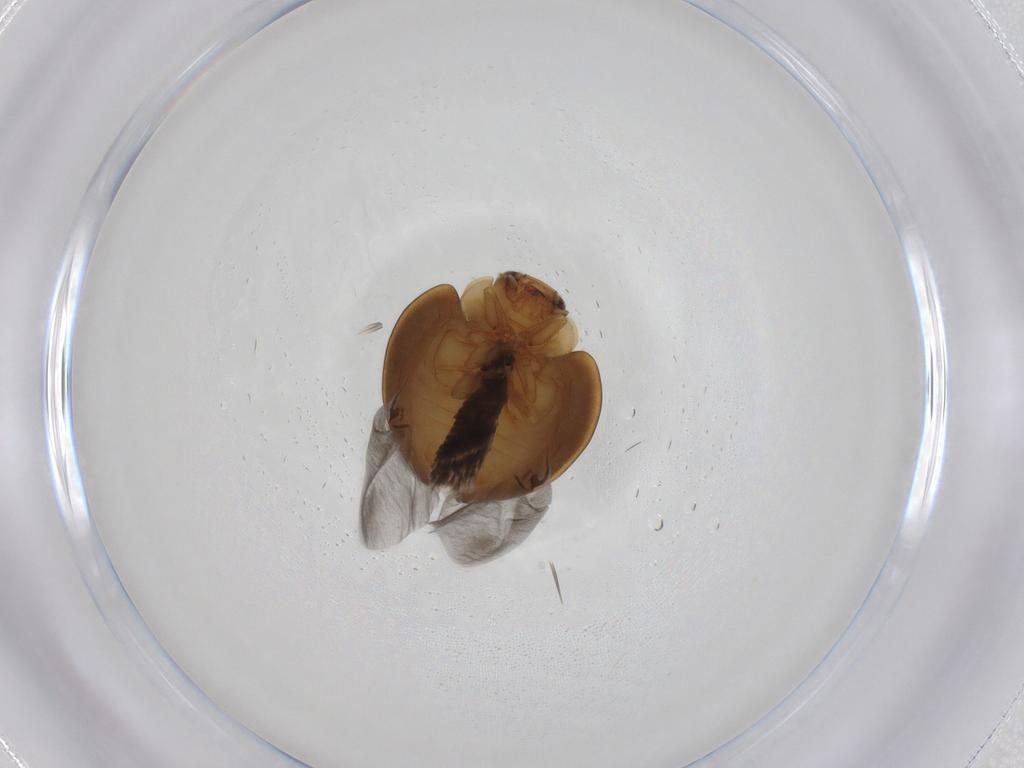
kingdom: Animalia
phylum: Arthropoda
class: Insecta
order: Coleoptera
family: Coccinellidae
